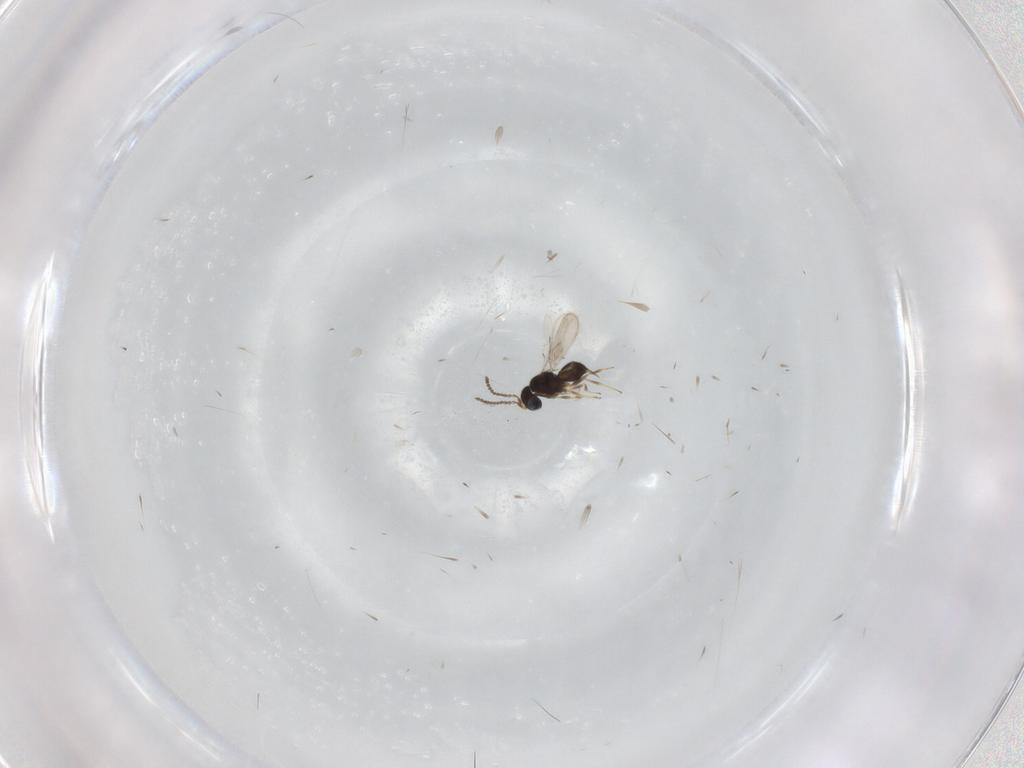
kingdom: Animalia
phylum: Arthropoda
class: Insecta
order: Hymenoptera
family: Scelionidae
